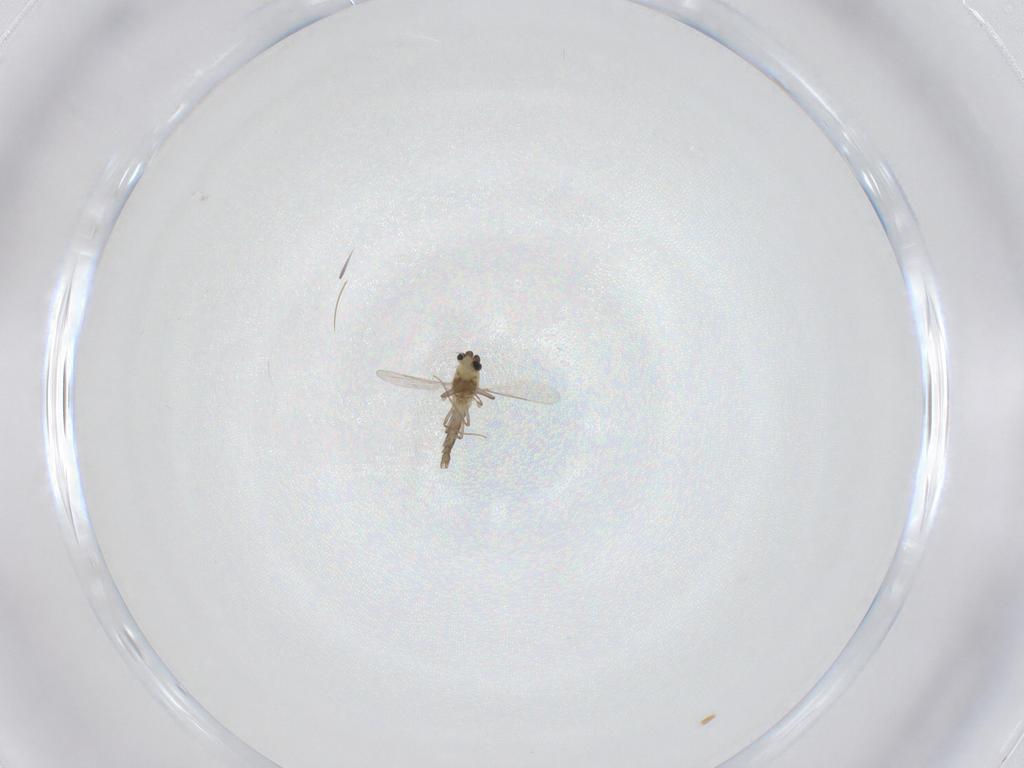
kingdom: Animalia
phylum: Arthropoda
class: Insecta
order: Diptera
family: Chironomidae
